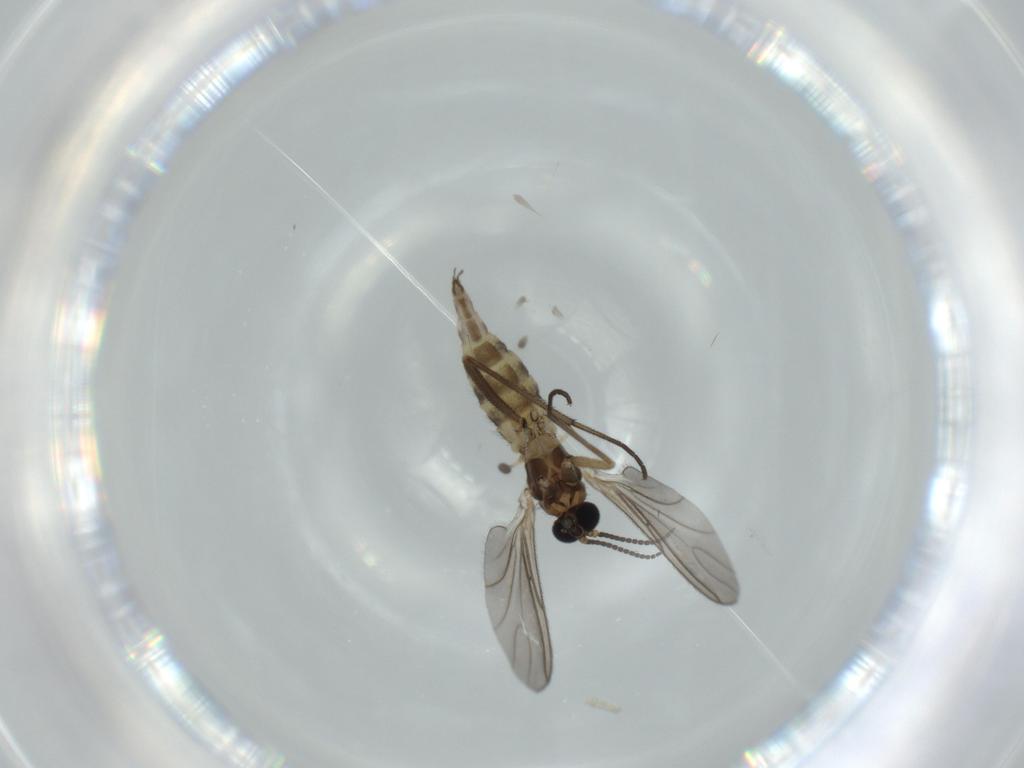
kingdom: Animalia
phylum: Arthropoda
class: Insecta
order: Diptera
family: Sciaridae
